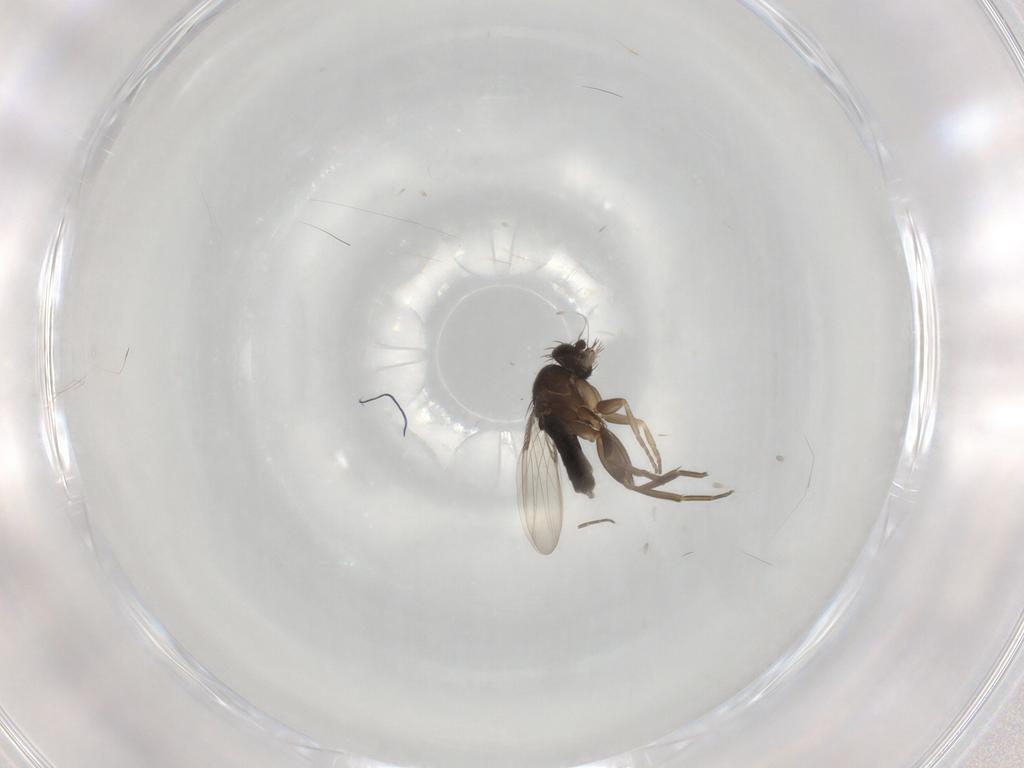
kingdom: Animalia
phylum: Arthropoda
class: Insecta
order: Diptera
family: Phoridae
